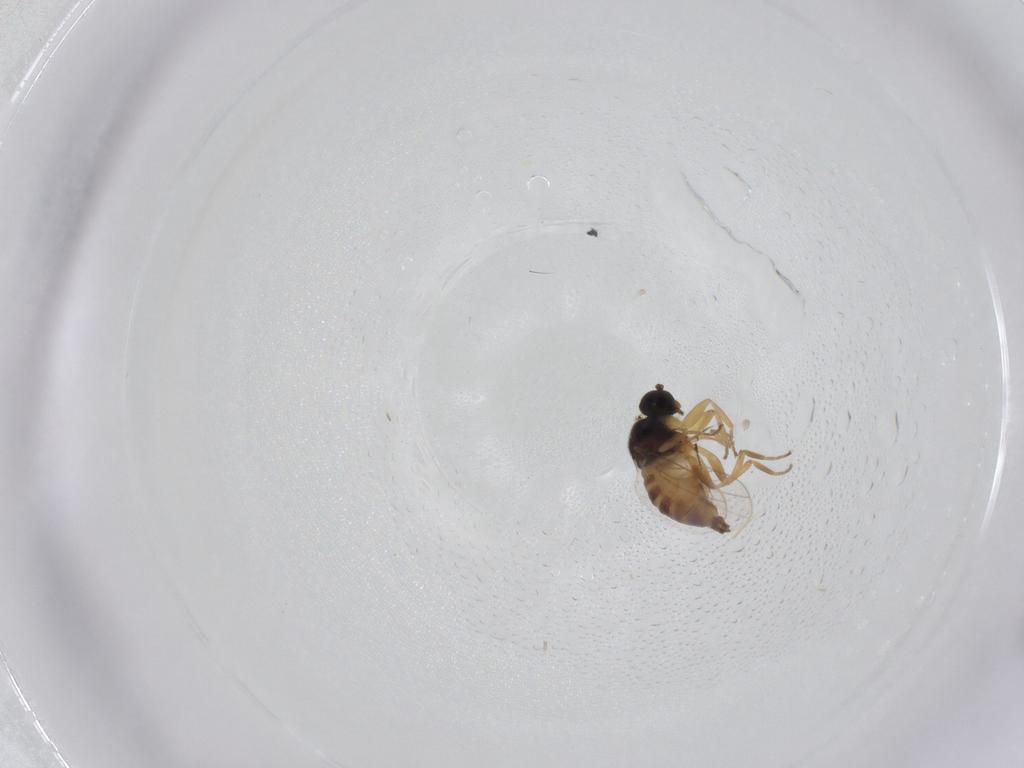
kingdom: Animalia
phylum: Arthropoda
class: Insecta
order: Diptera
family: Hybotidae
